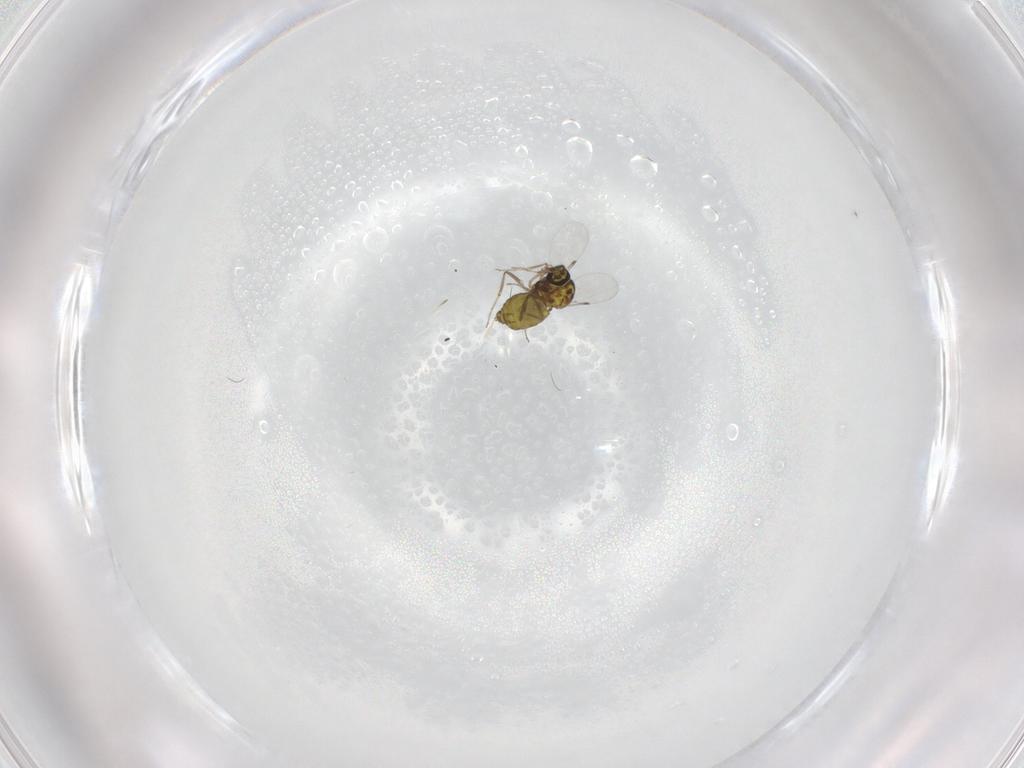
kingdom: Animalia
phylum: Arthropoda
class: Insecta
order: Diptera
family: Ceratopogonidae
